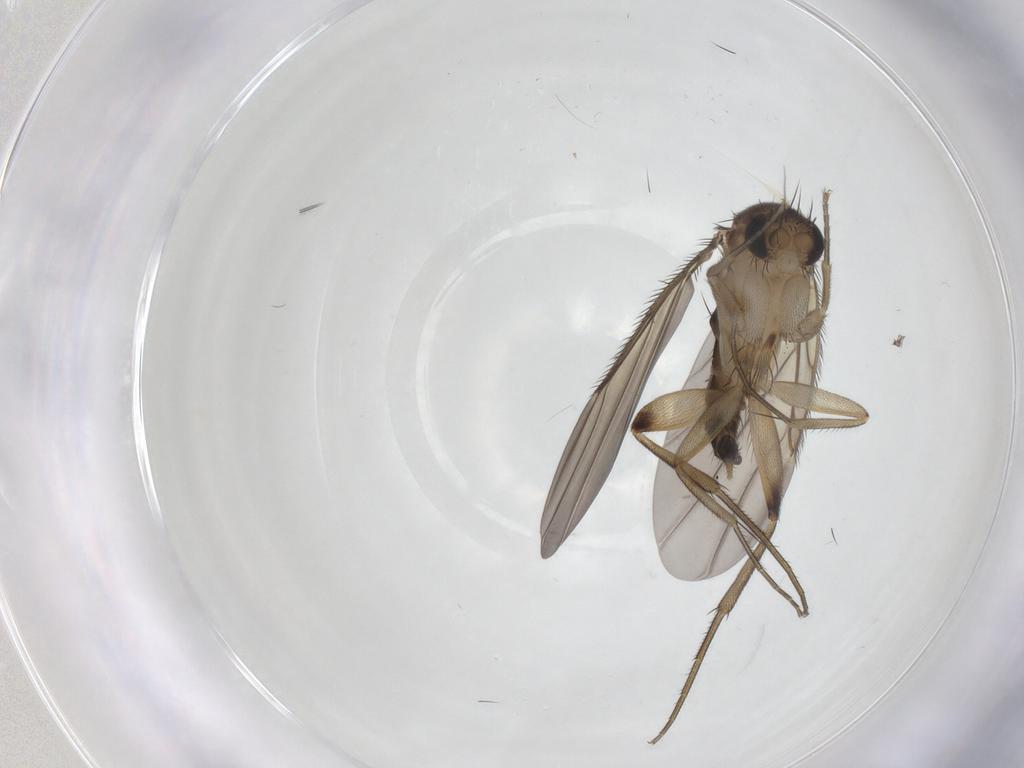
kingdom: Animalia
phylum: Arthropoda
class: Insecta
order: Diptera
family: Phoridae
